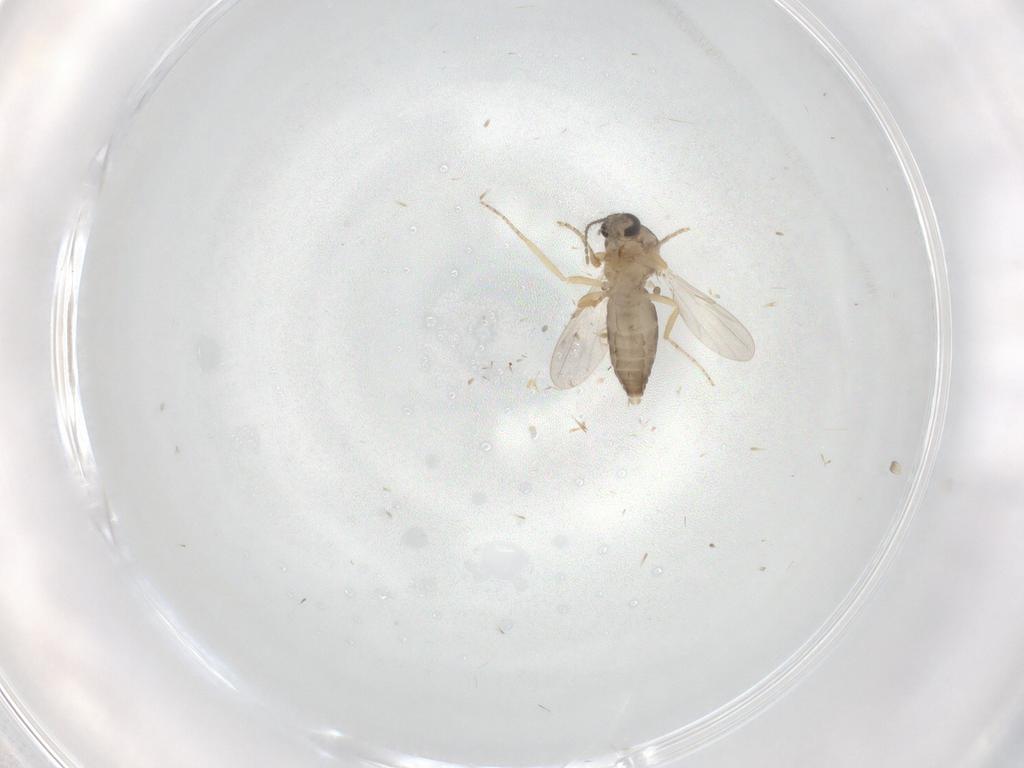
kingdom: Animalia
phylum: Arthropoda
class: Insecta
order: Diptera
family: Ceratopogonidae
